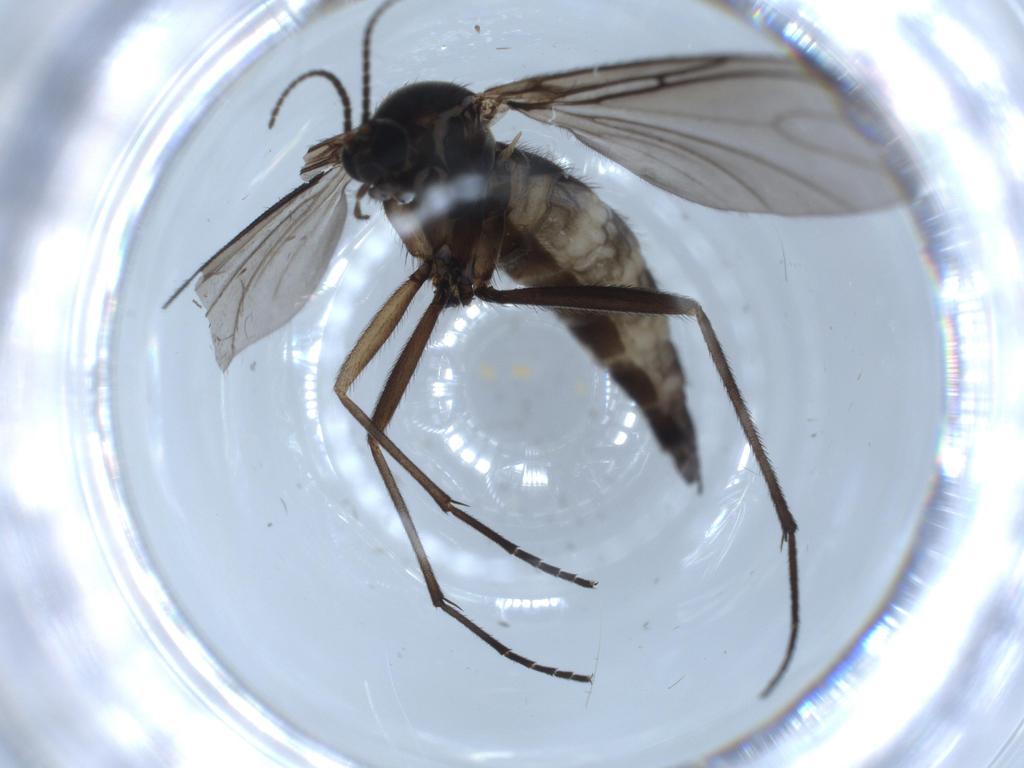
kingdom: Animalia
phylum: Arthropoda
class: Insecta
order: Diptera
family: Sciaridae
